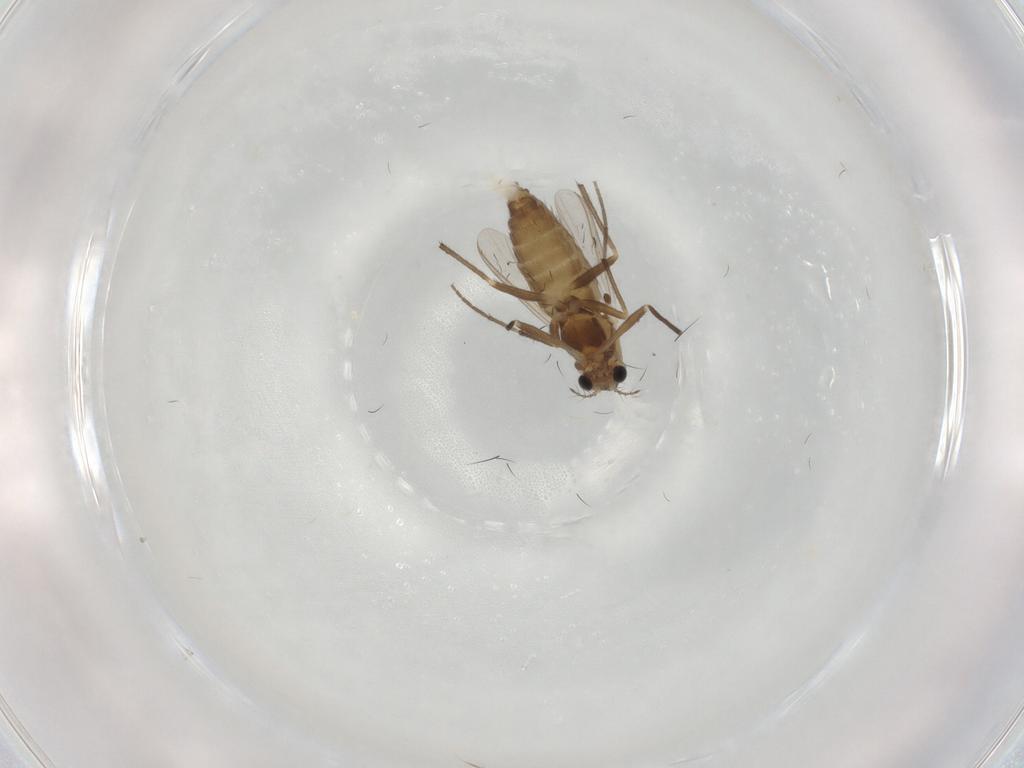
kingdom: Animalia
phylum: Arthropoda
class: Insecta
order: Diptera
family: Chironomidae
